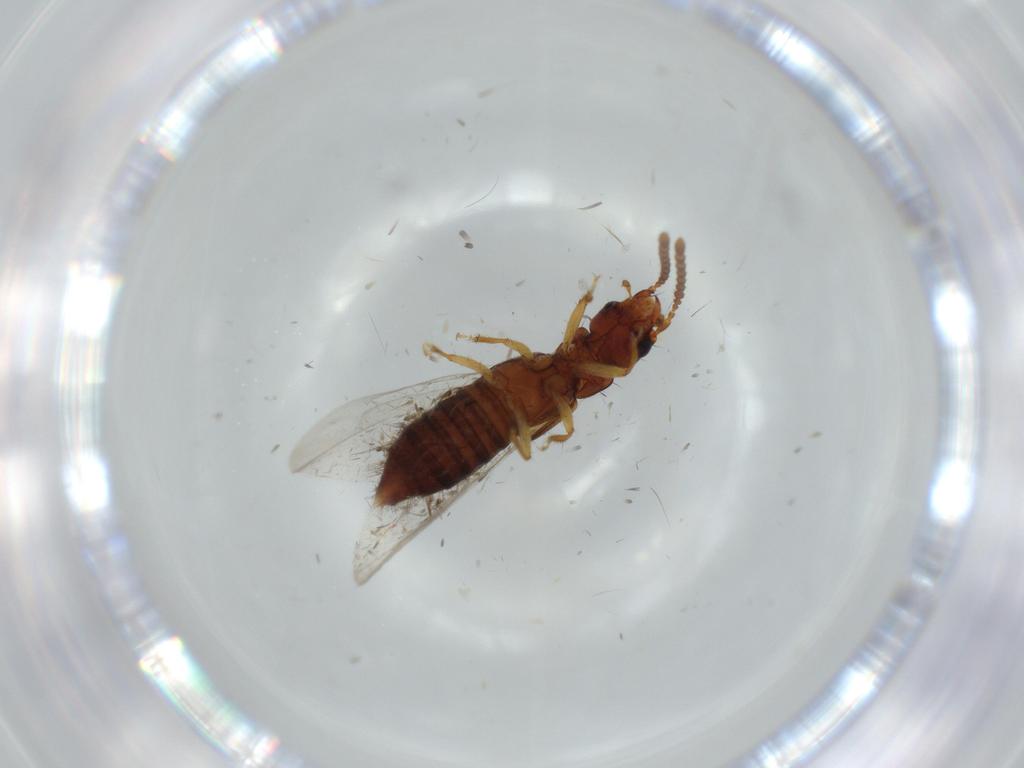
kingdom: Animalia
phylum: Arthropoda
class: Insecta
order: Coleoptera
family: Staphylinidae
